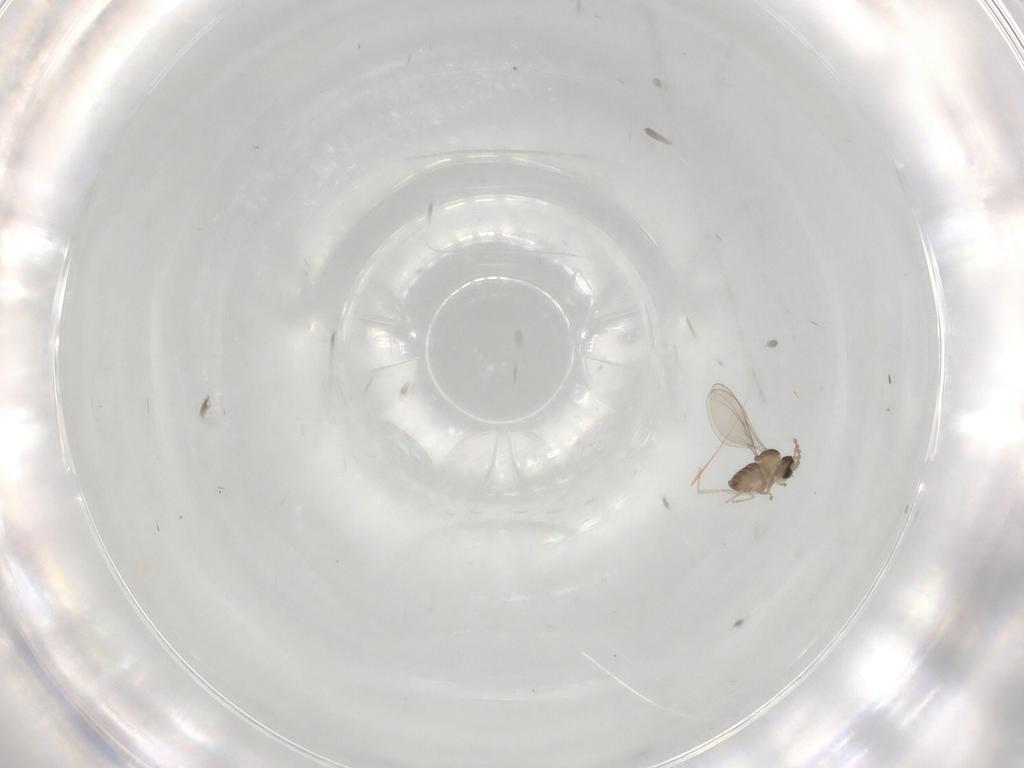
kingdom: Animalia
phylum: Arthropoda
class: Insecta
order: Diptera
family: Cecidomyiidae
